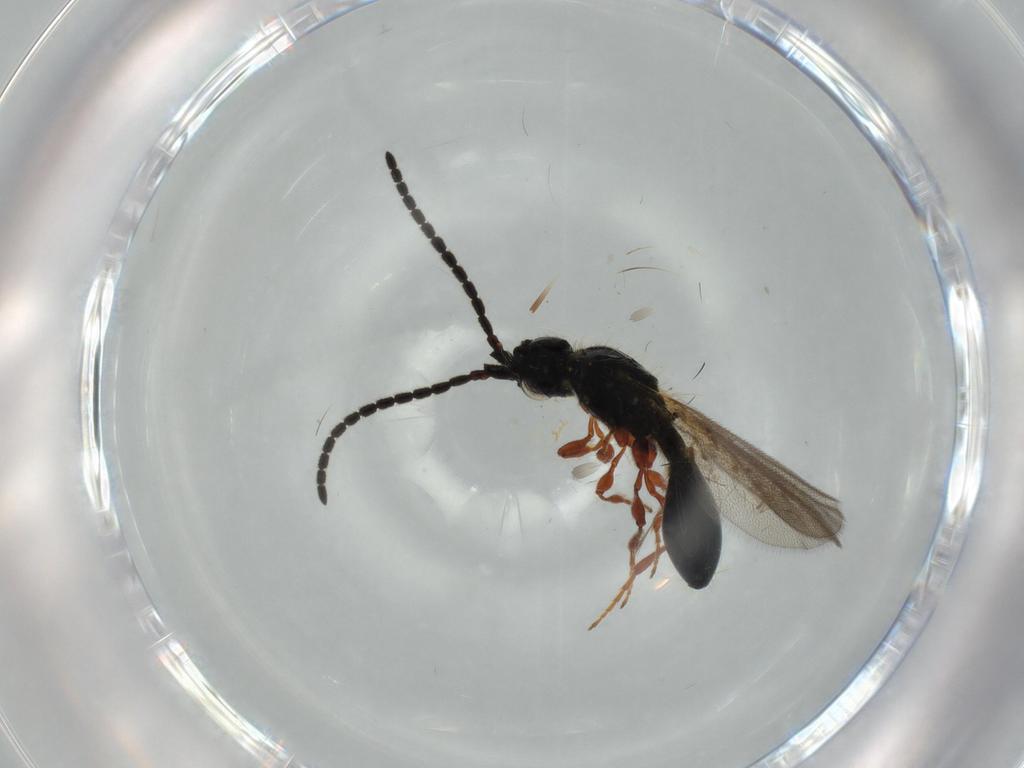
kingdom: Animalia
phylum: Arthropoda
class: Insecta
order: Hymenoptera
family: Diapriidae
